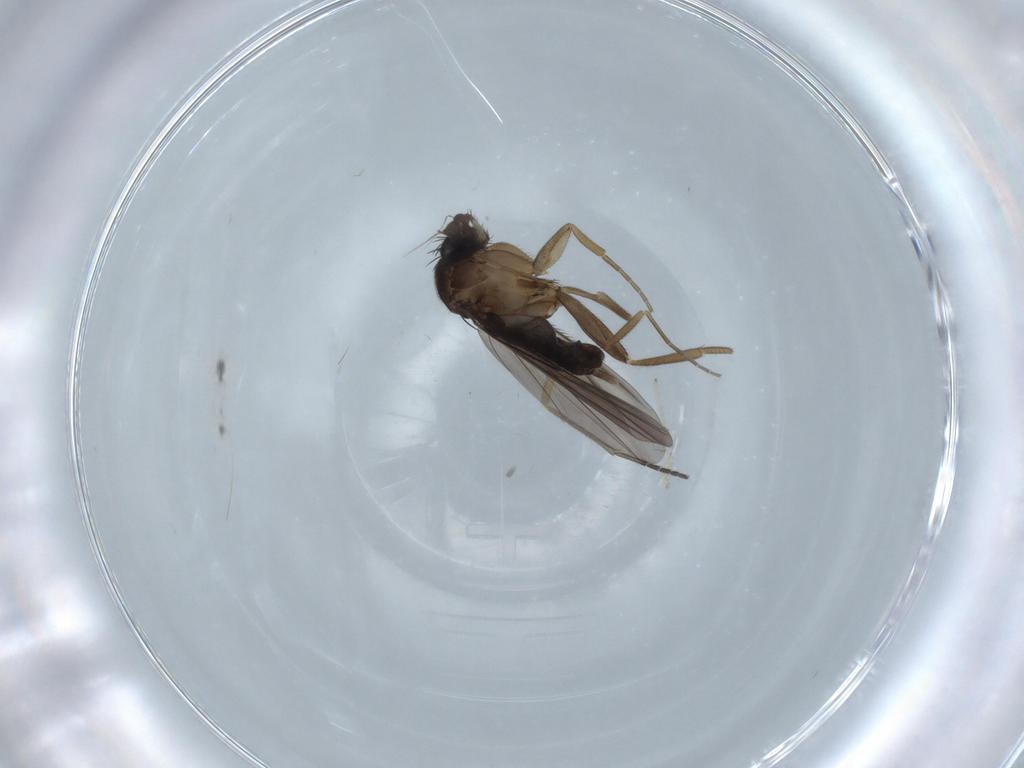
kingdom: Animalia
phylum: Arthropoda
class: Insecta
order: Diptera
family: Sciaridae
